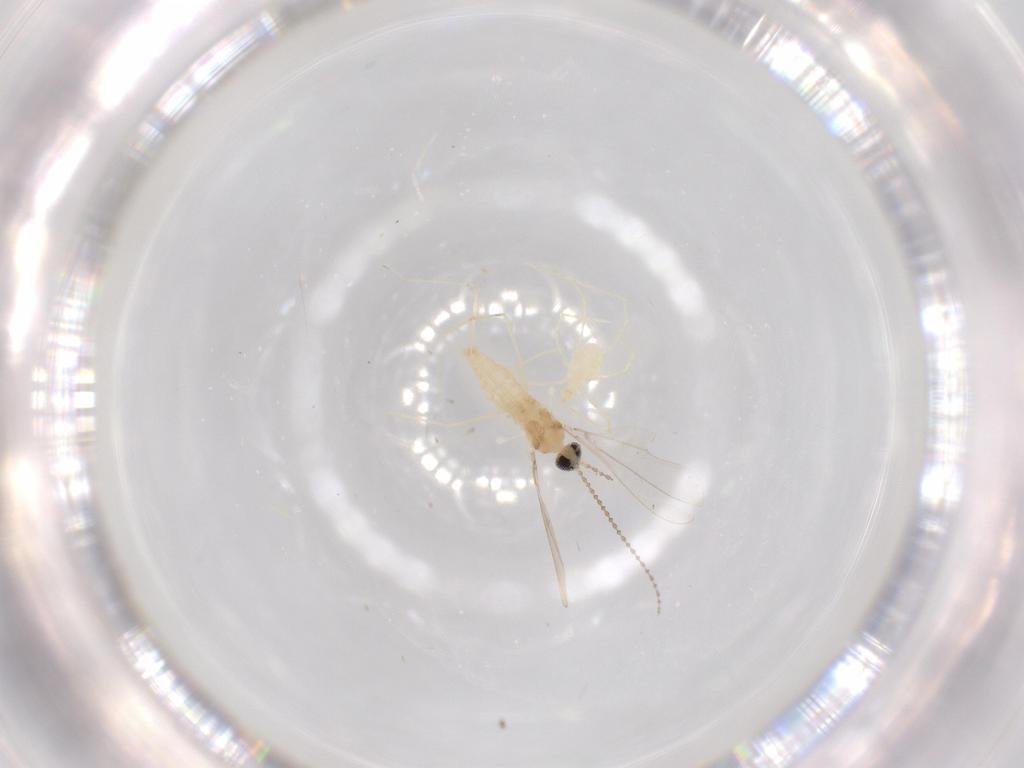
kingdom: Animalia
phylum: Arthropoda
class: Insecta
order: Diptera
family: Cecidomyiidae
